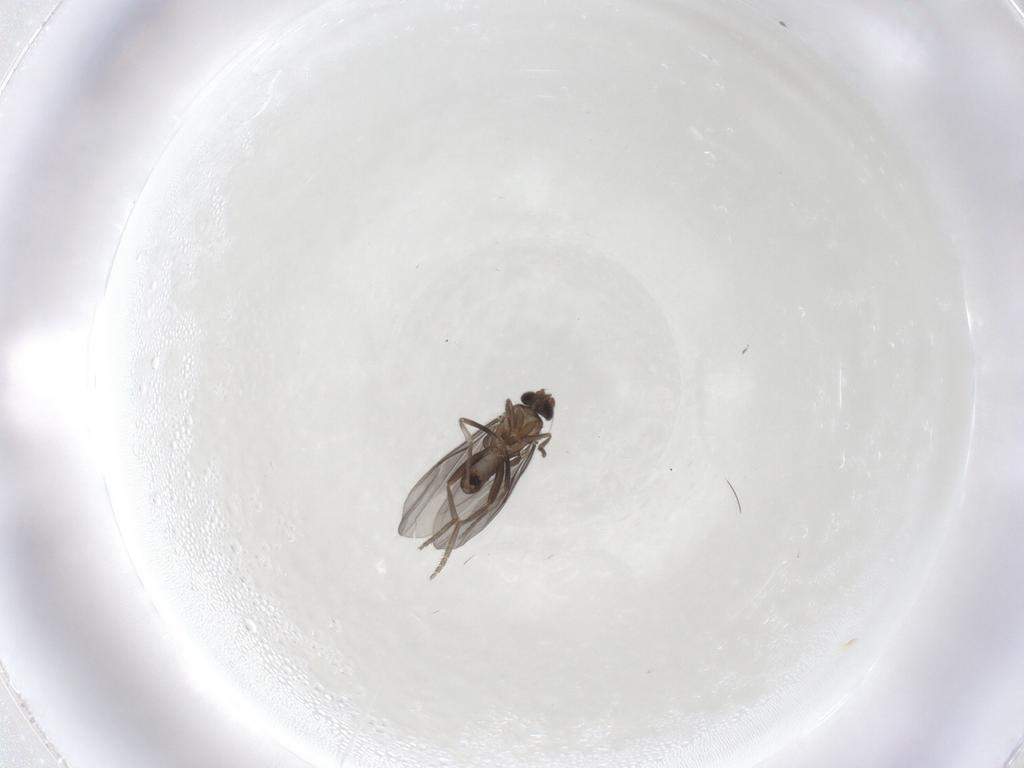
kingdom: Animalia
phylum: Arthropoda
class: Insecta
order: Diptera
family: Phoridae
